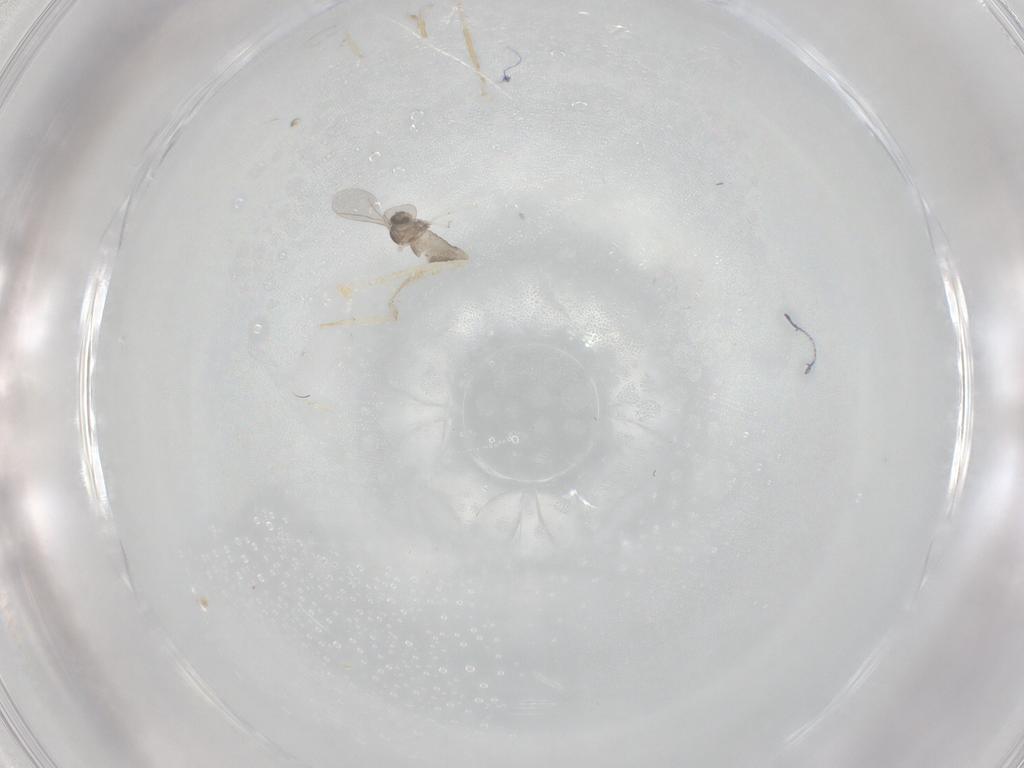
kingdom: Animalia
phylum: Arthropoda
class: Insecta
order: Diptera
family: Cecidomyiidae
